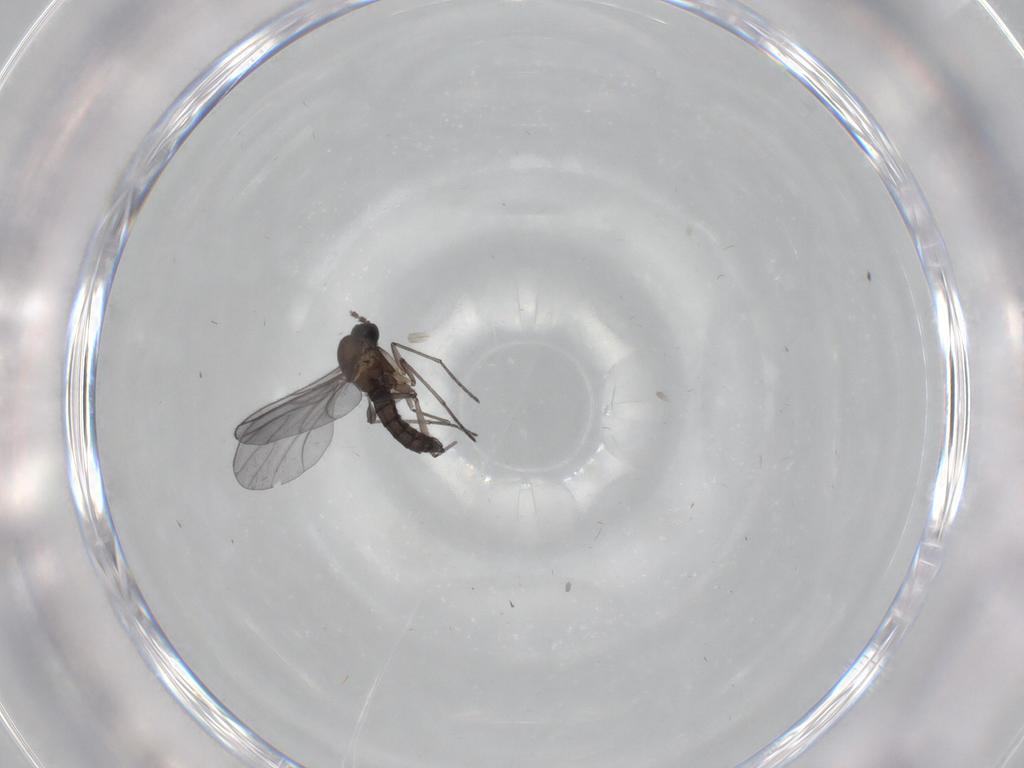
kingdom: Animalia
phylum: Arthropoda
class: Insecta
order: Diptera
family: Sciaridae
